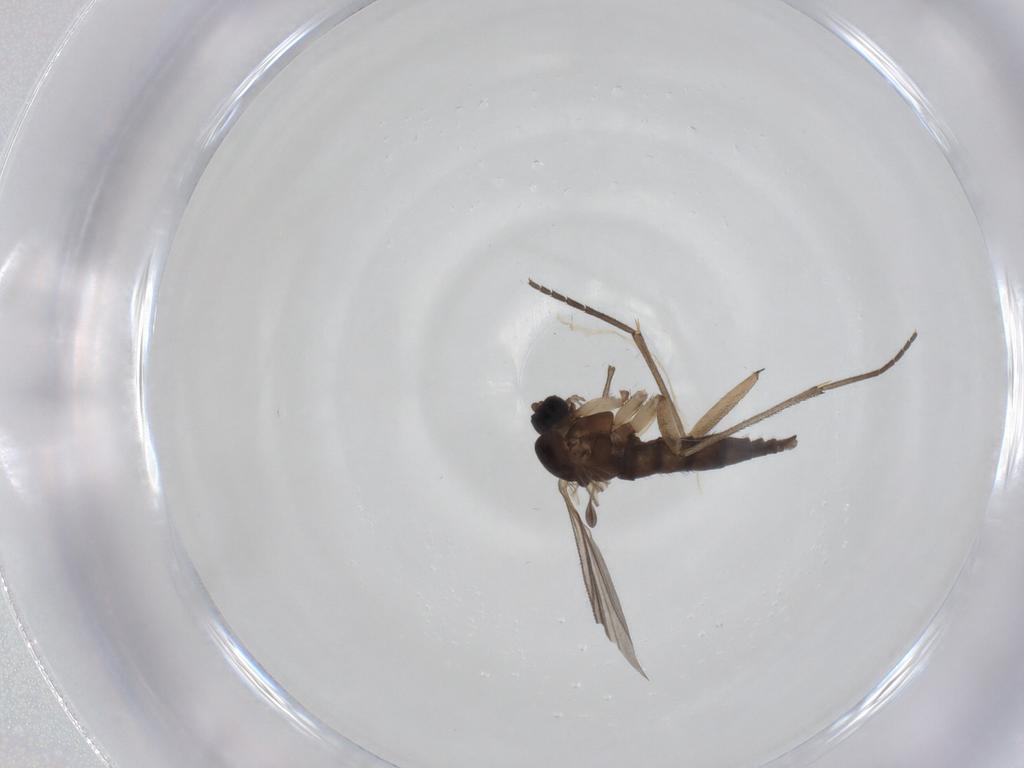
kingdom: Animalia
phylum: Arthropoda
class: Insecta
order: Diptera
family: Sciaridae
